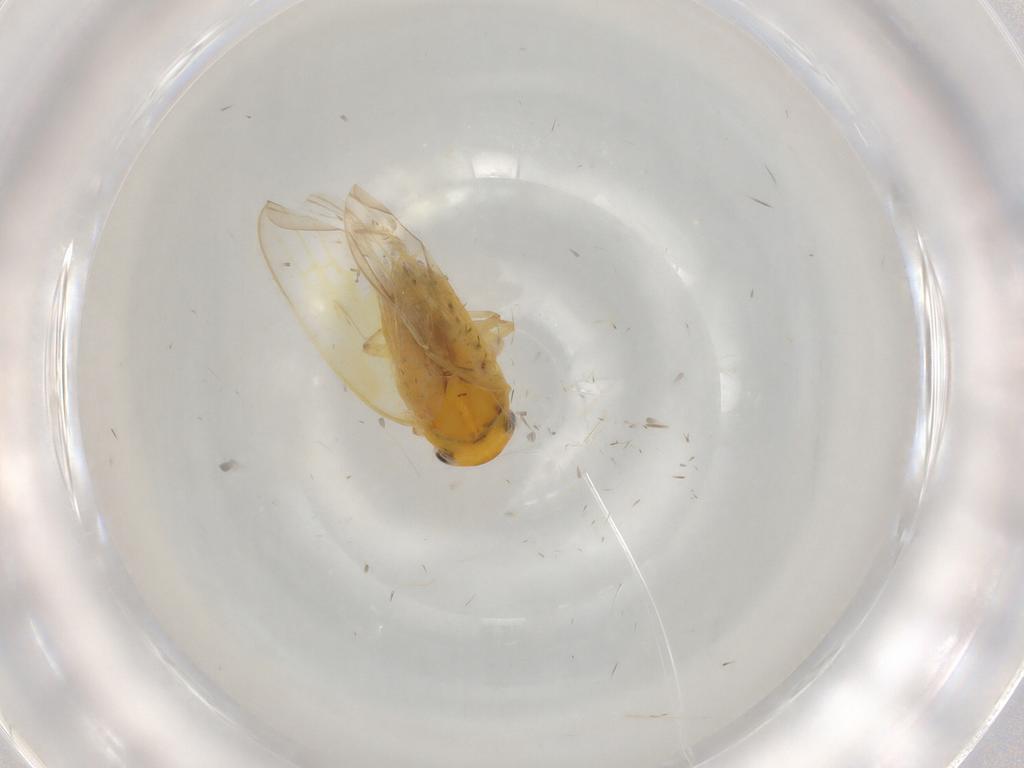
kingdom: Animalia
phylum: Arthropoda
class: Insecta
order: Hemiptera
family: Cicadellidae
